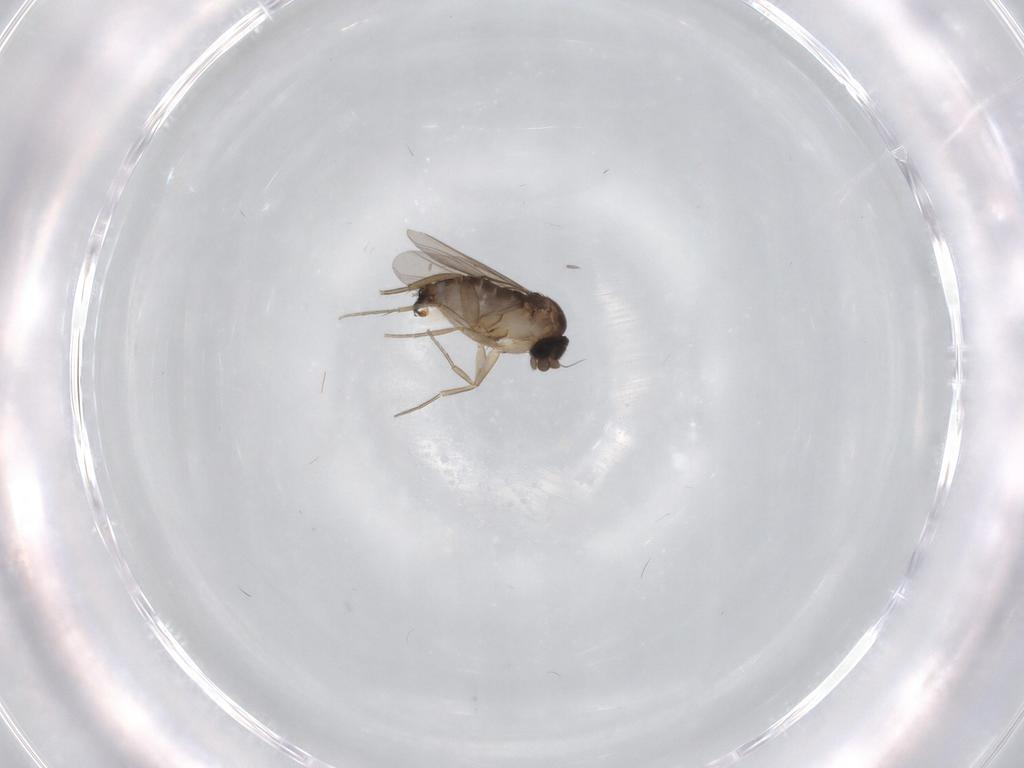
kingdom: Animalia
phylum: Arthropoda
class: Insecta
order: Diptera
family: Phoridae
